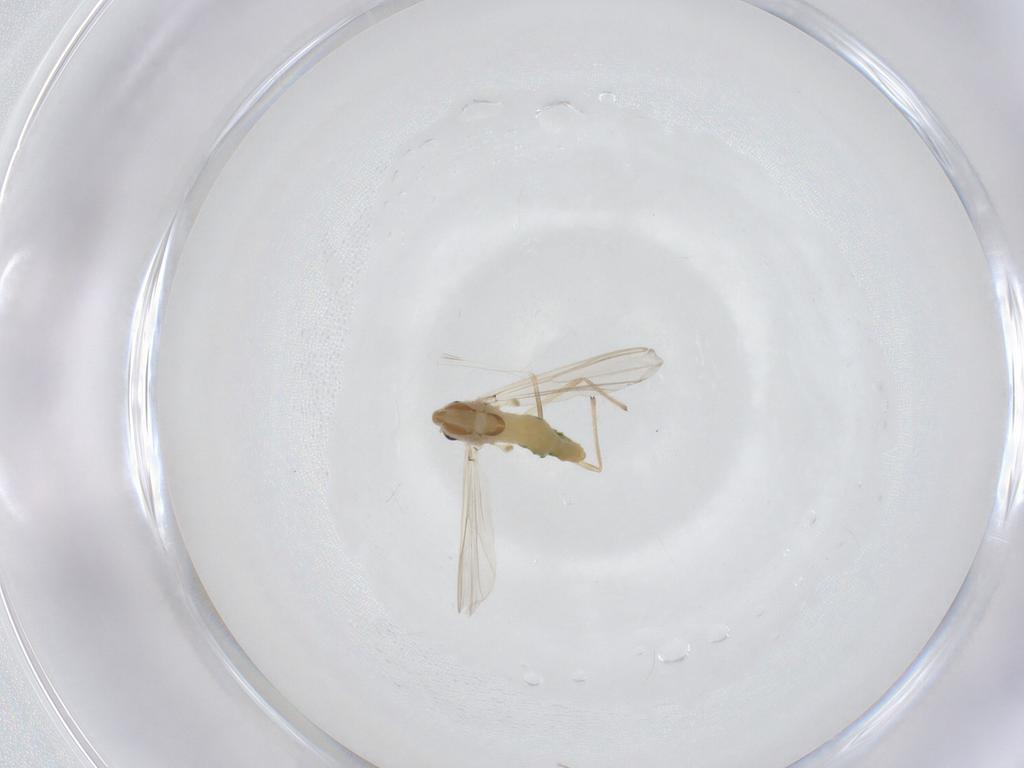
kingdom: Animalia
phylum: Arthropoda
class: Insecta
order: Diptera
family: Chironomidae
